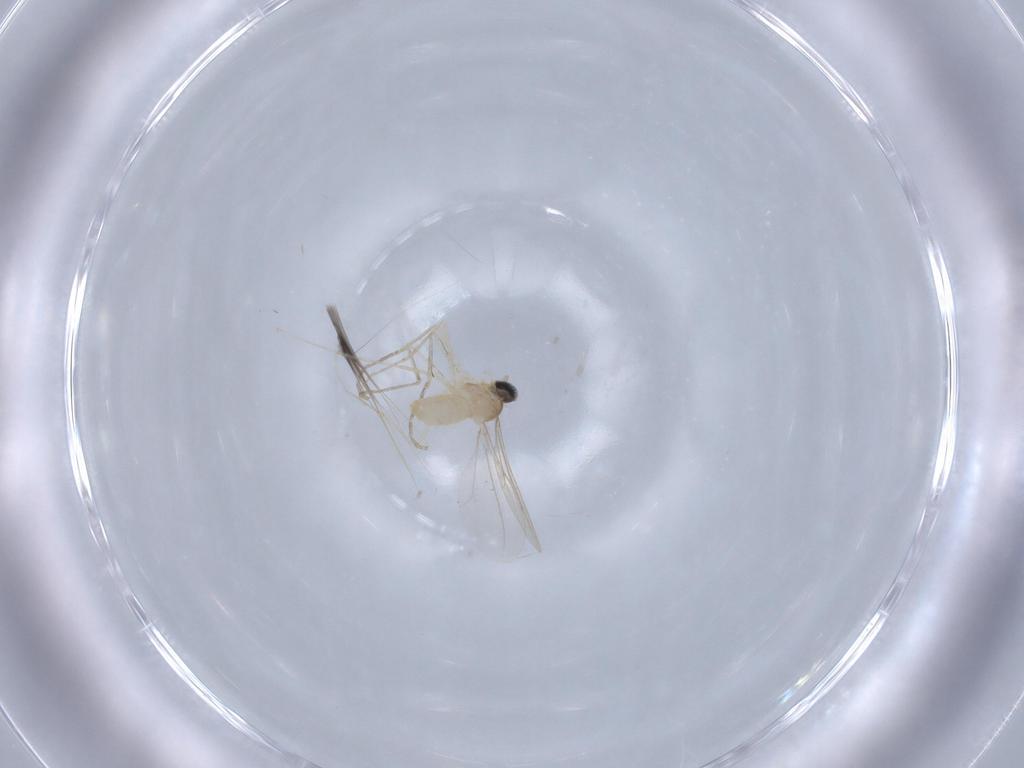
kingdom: Animalia
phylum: Arthropoda
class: Insecta
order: Diptera
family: Cecidomyiidae
